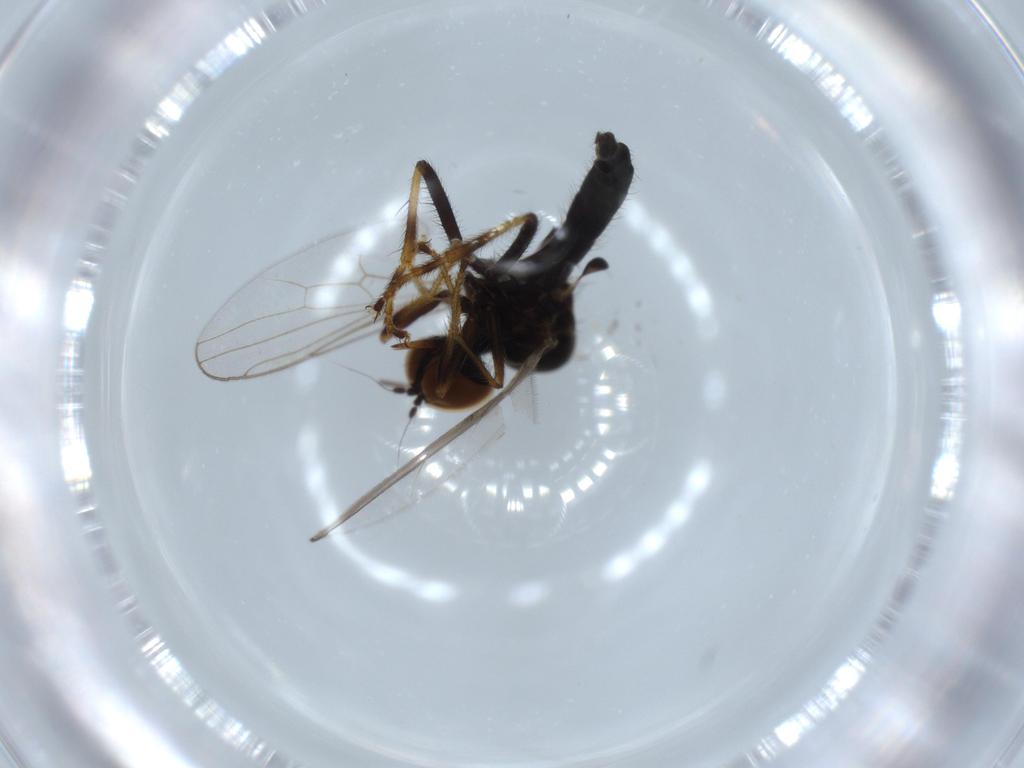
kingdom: Animalia
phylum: Arthropoda
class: Insecta
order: Diptera
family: Hybotidae
